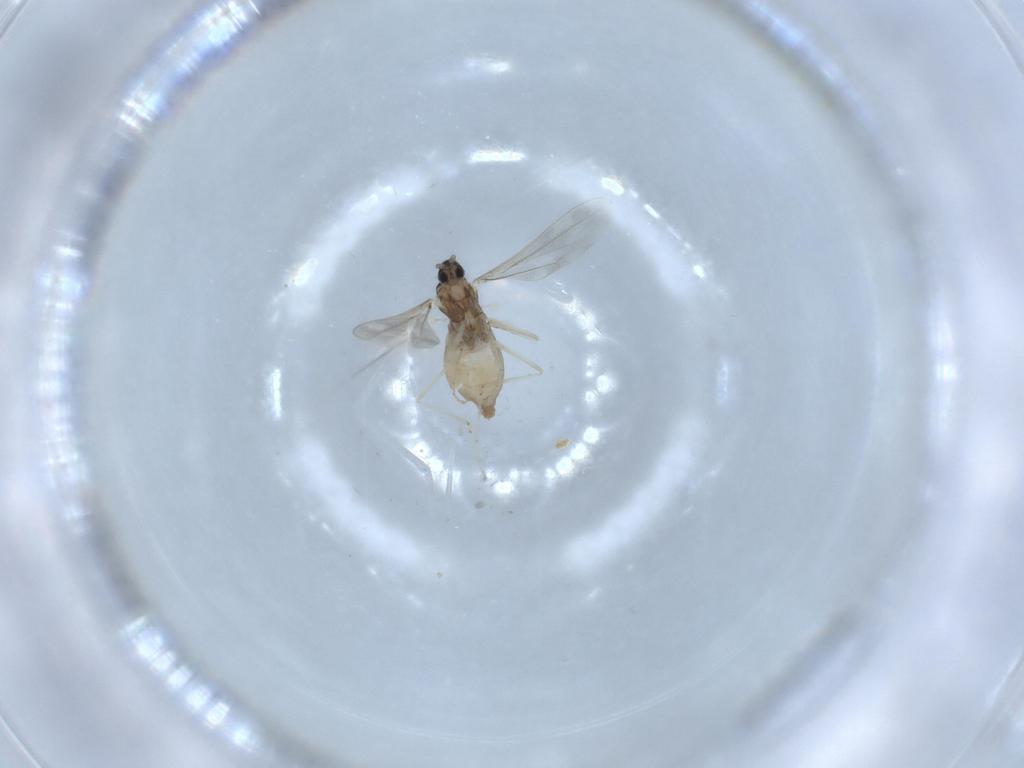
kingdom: Animalia
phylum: Arthropoda
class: Insecta
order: Diptera
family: Cecidomyiidae
